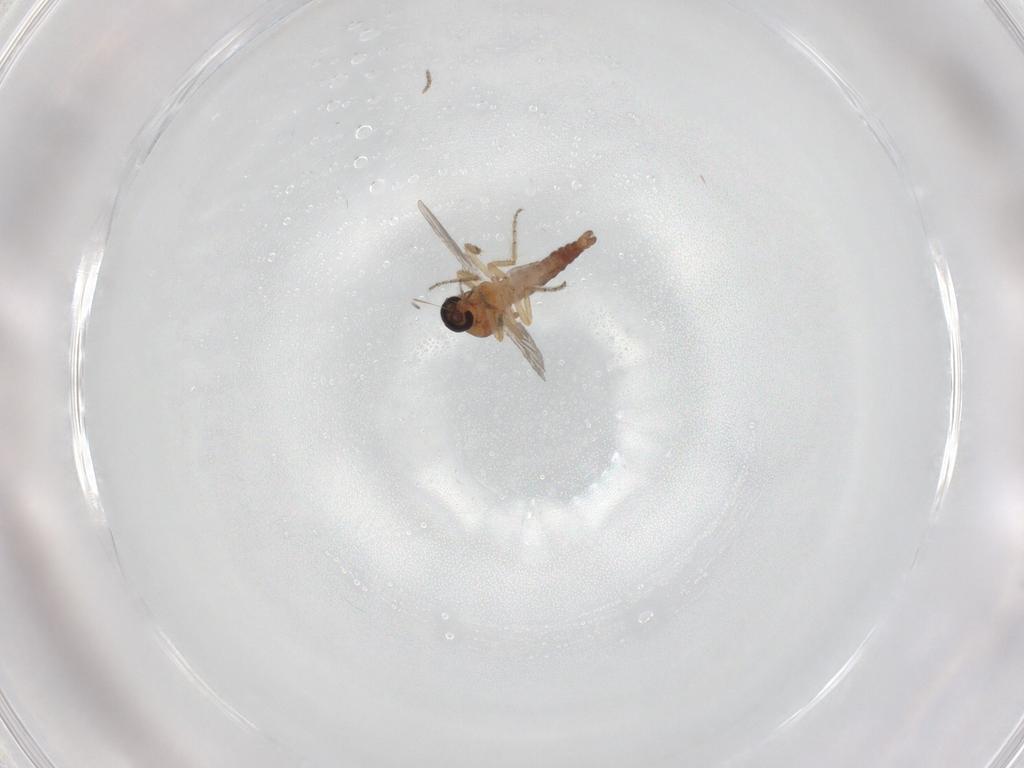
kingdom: Animalia
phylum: Arthropoda
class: Insecta
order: Diptera
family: Ceratopogonidae
